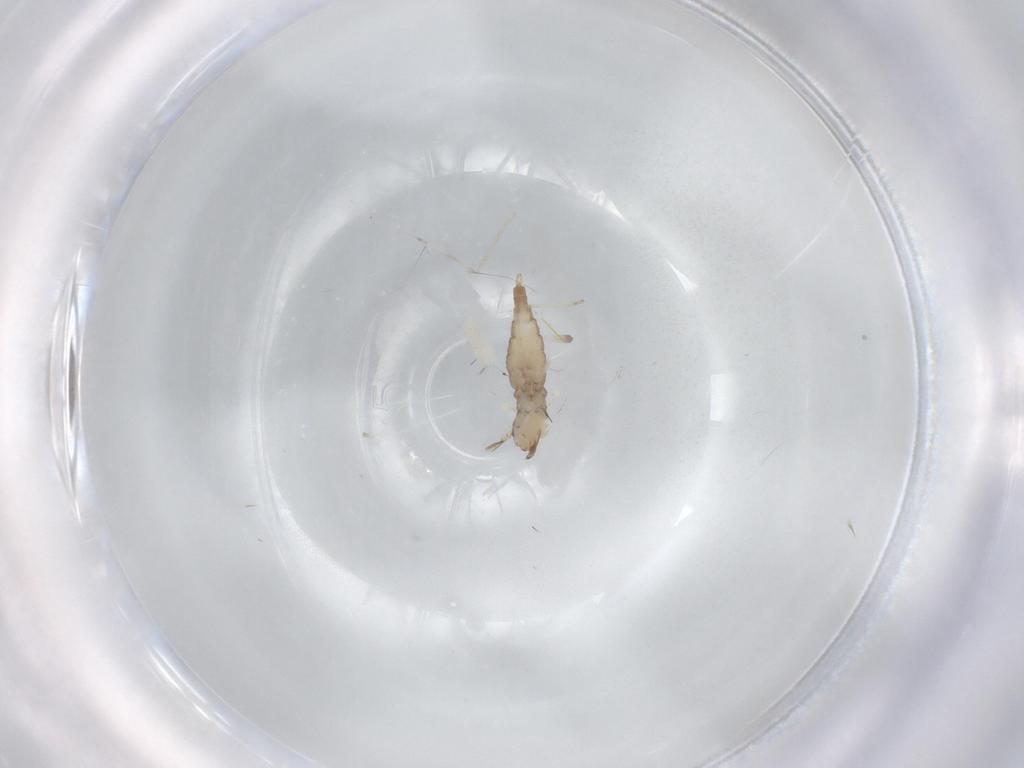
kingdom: Animalia
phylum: Arthropoda
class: Insecta
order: Diptera
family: Cecidomyiidae
